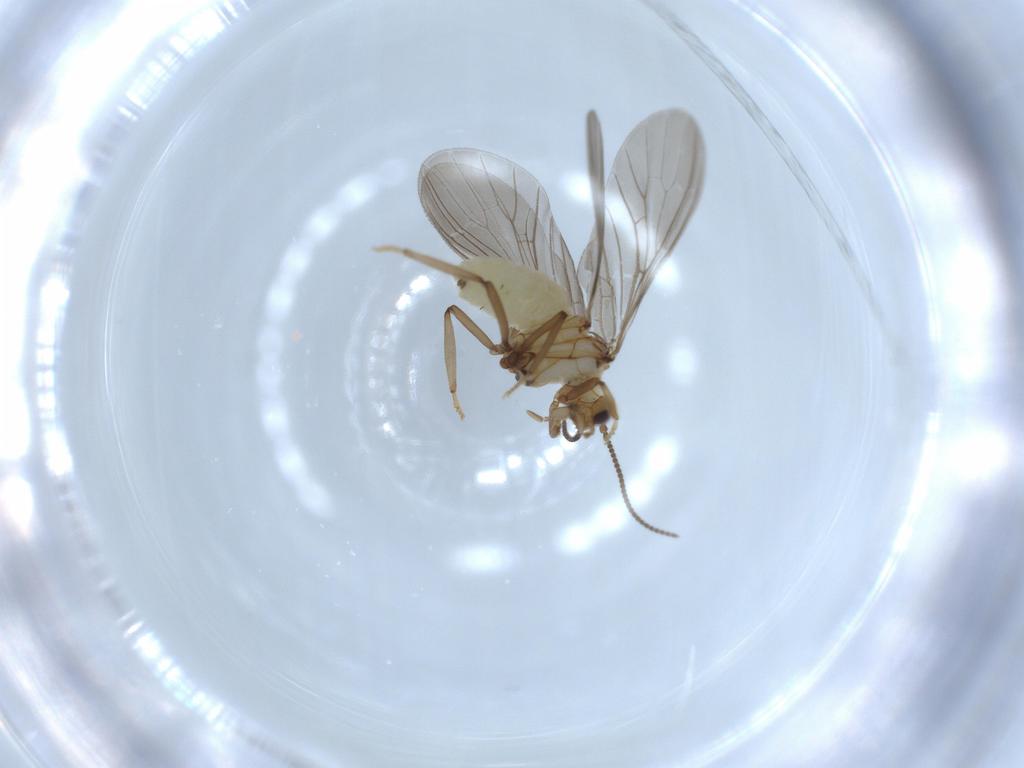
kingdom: Animalia
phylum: Arthropoda
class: Insecta
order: Neuroptera
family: Coniopterygidae
